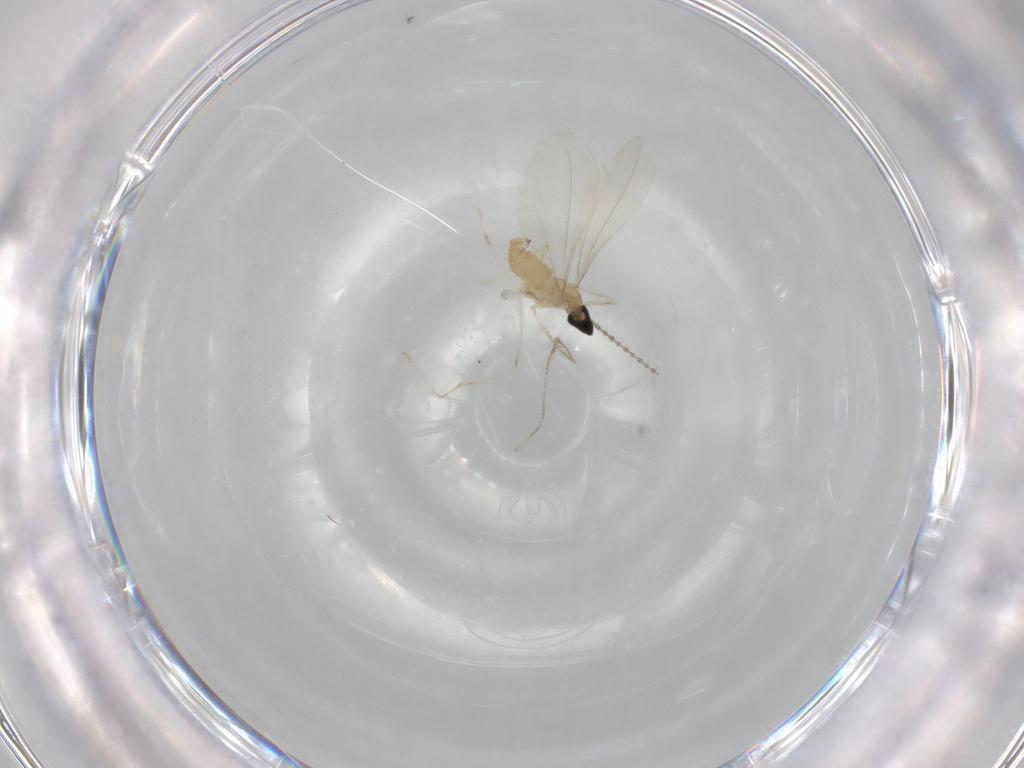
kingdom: Animalia
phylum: Arthropoda
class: Insecta
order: Diptera
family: Cecidomyiidae
